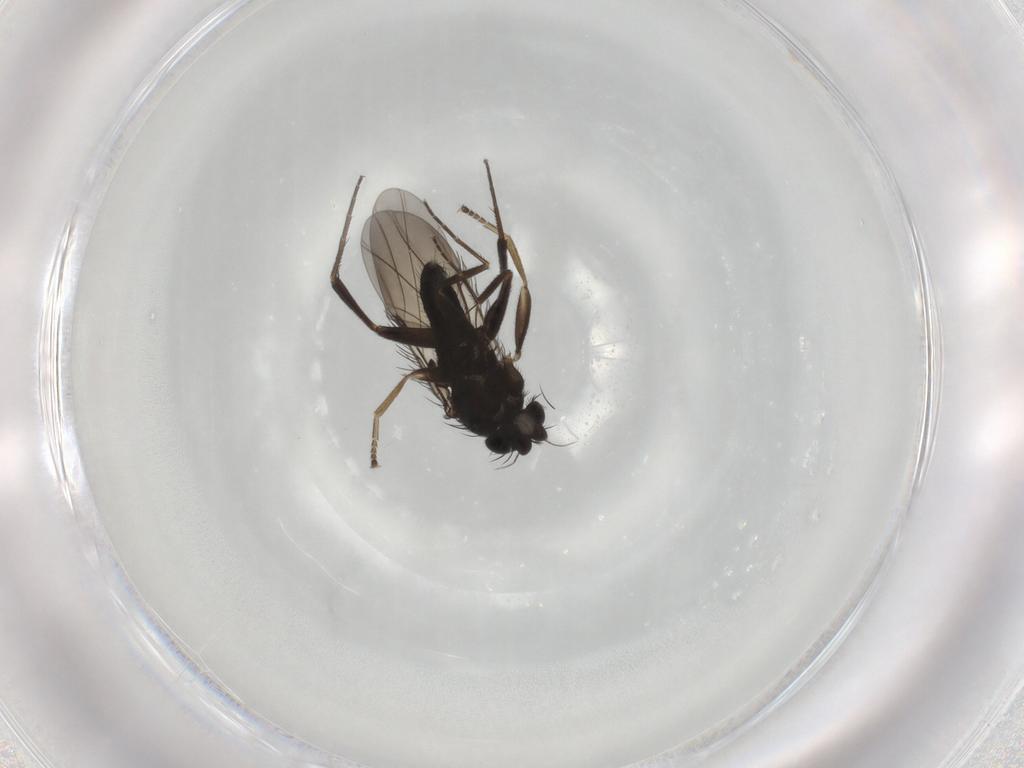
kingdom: Animalia
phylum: Arthropoda
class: Insecta
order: Diptera
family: Phoridae
